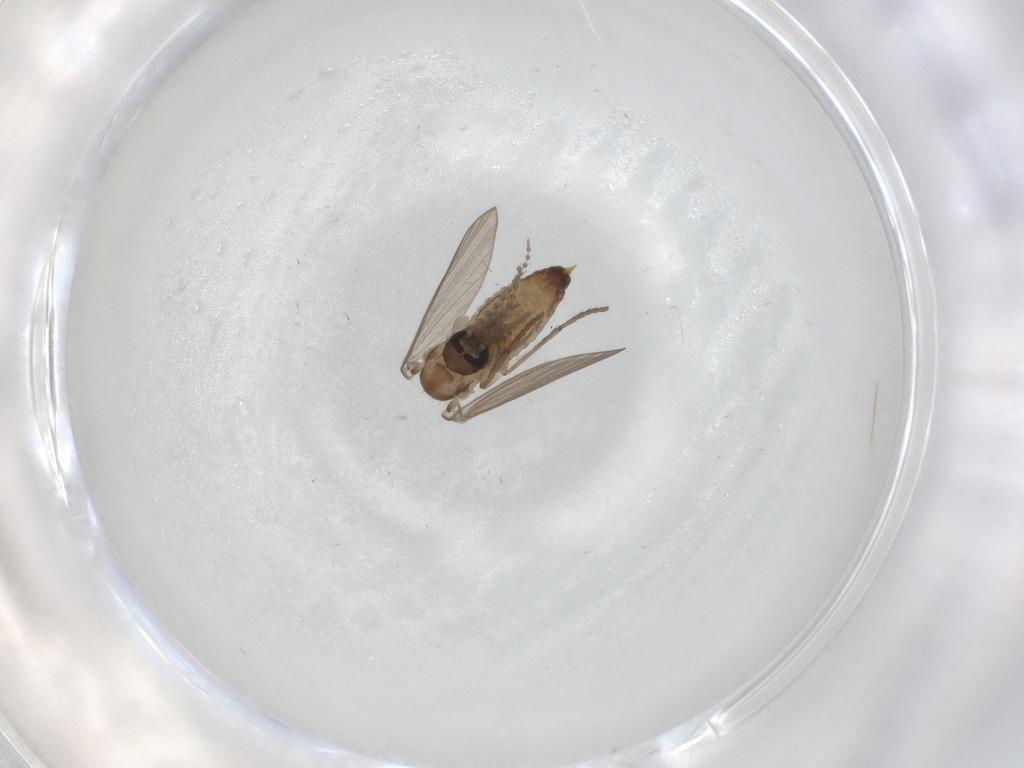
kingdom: Animalia
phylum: Arthropoda
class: Insecta
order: Diptera
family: Psychodidae
